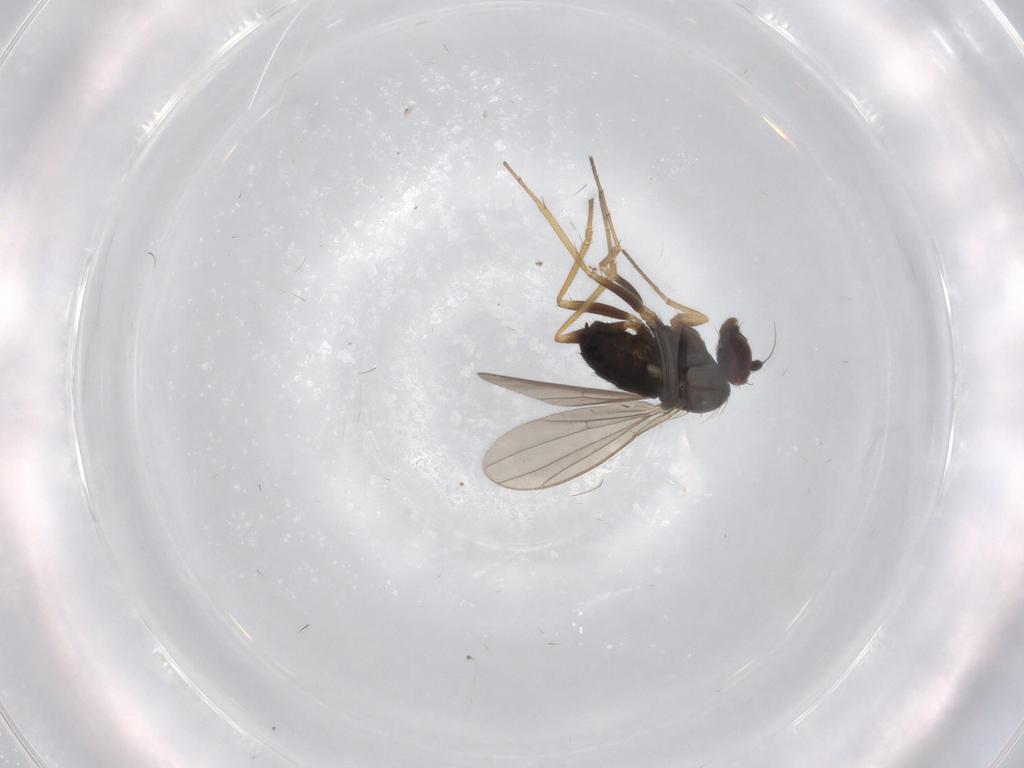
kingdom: Animalia
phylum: Arthropoda
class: Insecta
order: Diptera
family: Dolichopodidae
